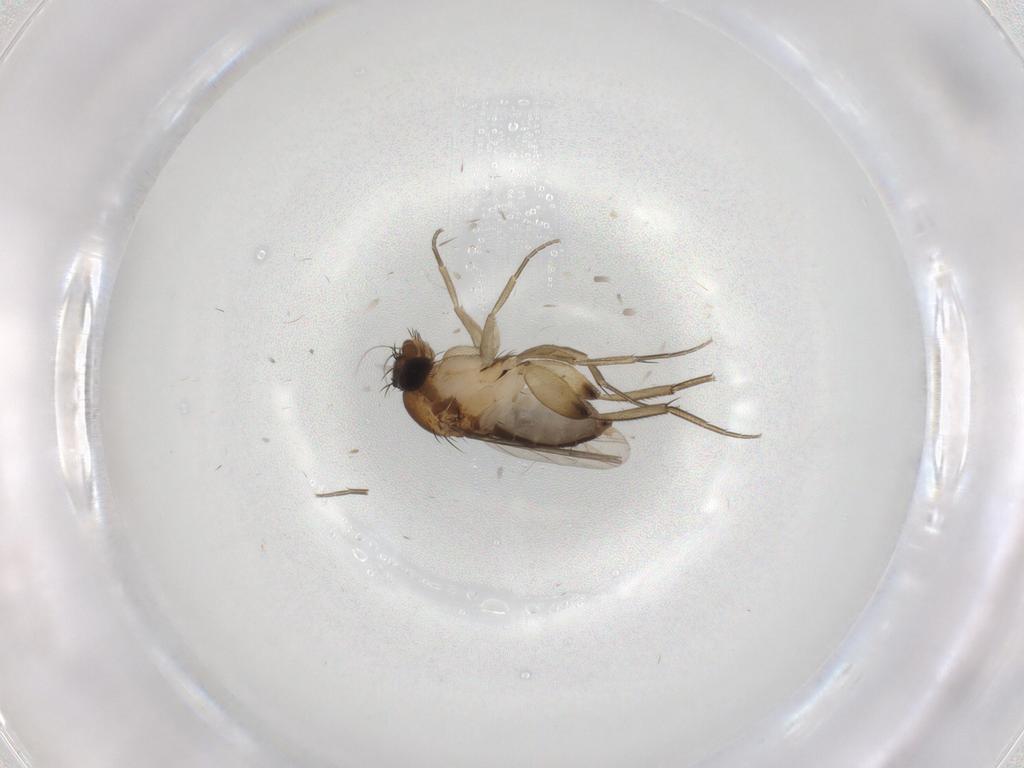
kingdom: Animalia
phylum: Arthropoda
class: Insecta
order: Diptera
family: Phoridae
